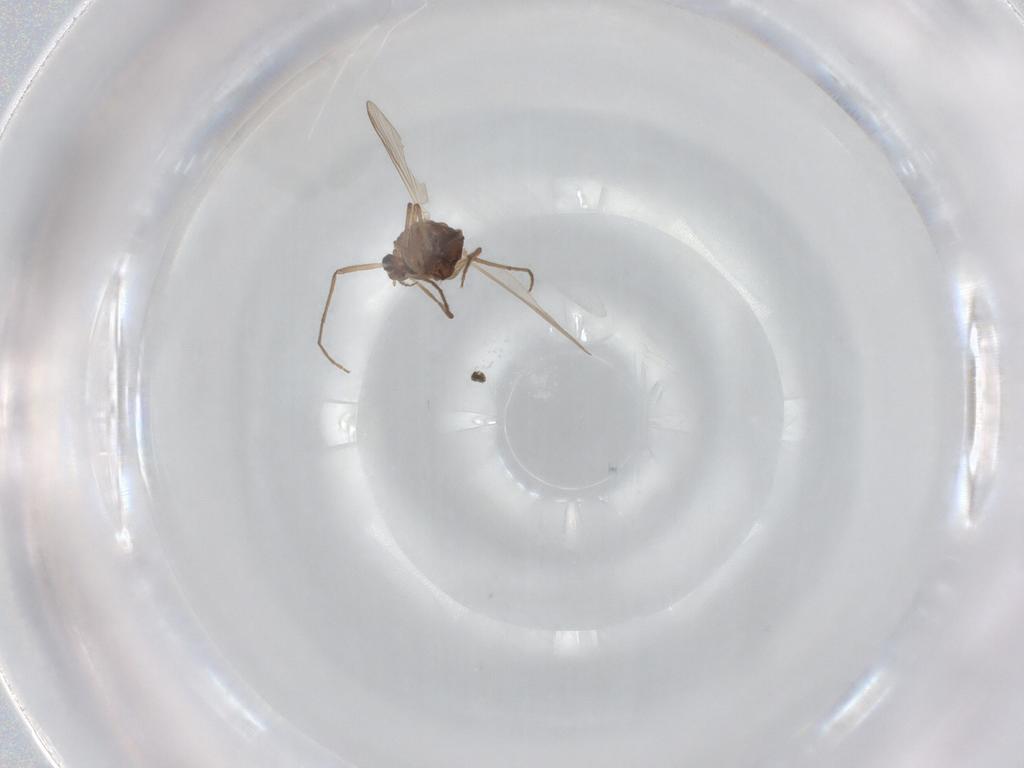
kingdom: Animalia
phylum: Arthropoda
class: Insecta
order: Diptera
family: Chironomidae
